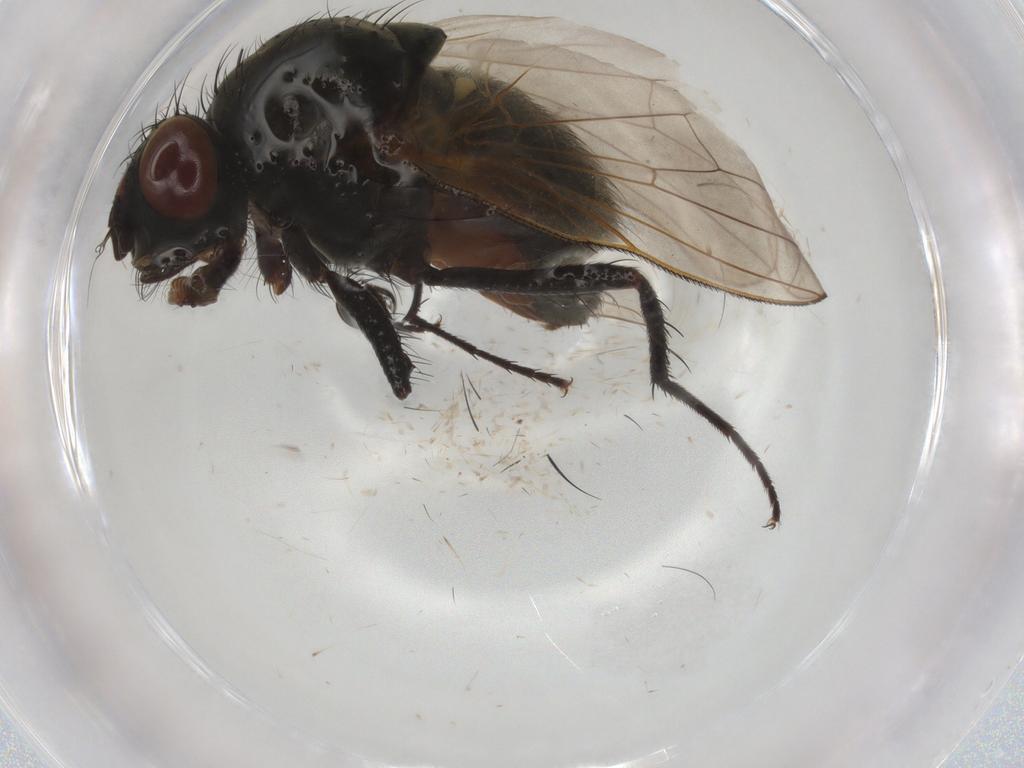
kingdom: Animalia
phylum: Arthropoda
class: Insecta
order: Diptera
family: Anthomyiidae
